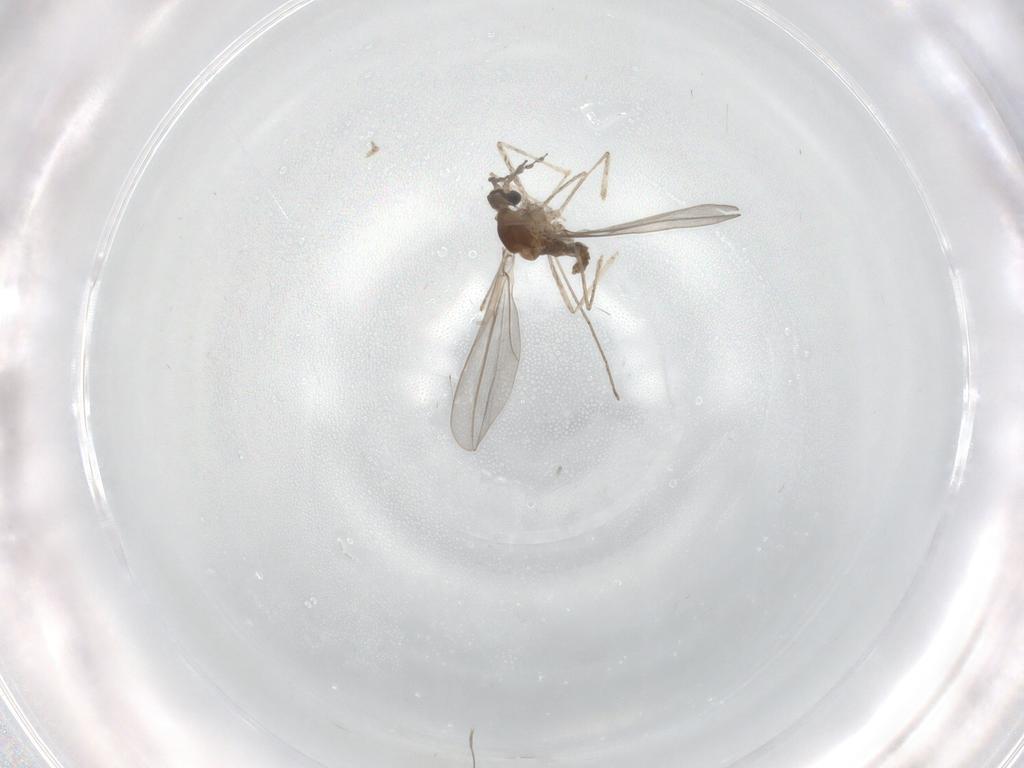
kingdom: Animalia
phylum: Arthropoda
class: Insecta
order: Diptera
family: Cecidomyiidae
